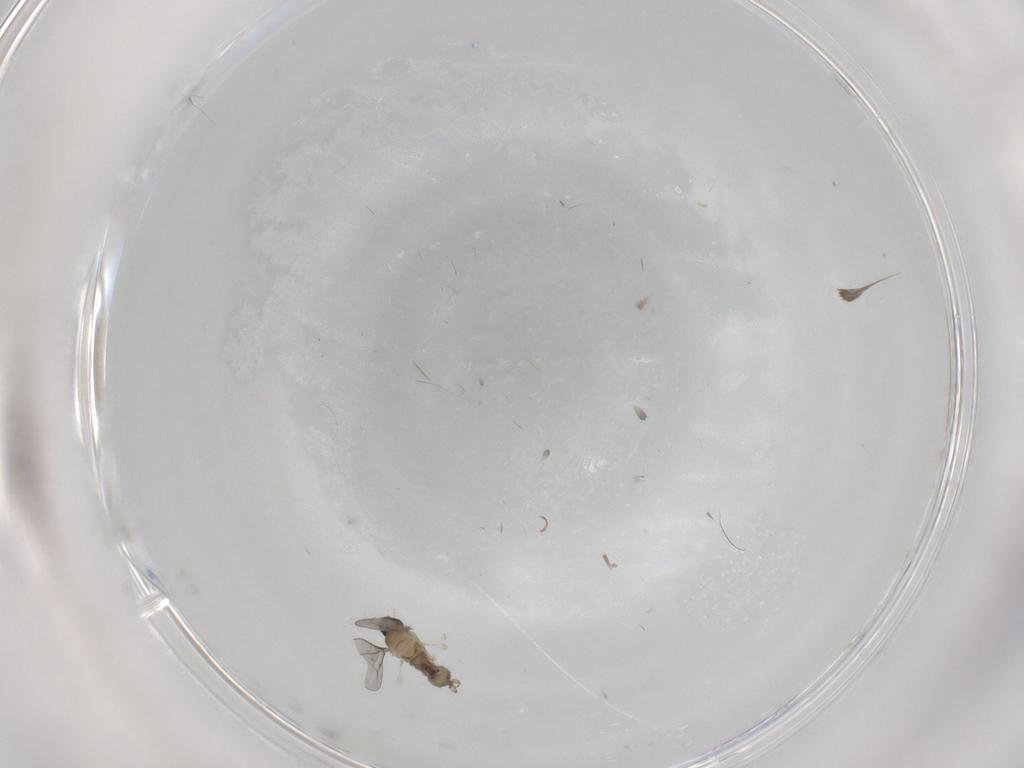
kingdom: Animalia
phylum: Arthropoda
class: Insecta
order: Diptera
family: Cecidomyiidae
